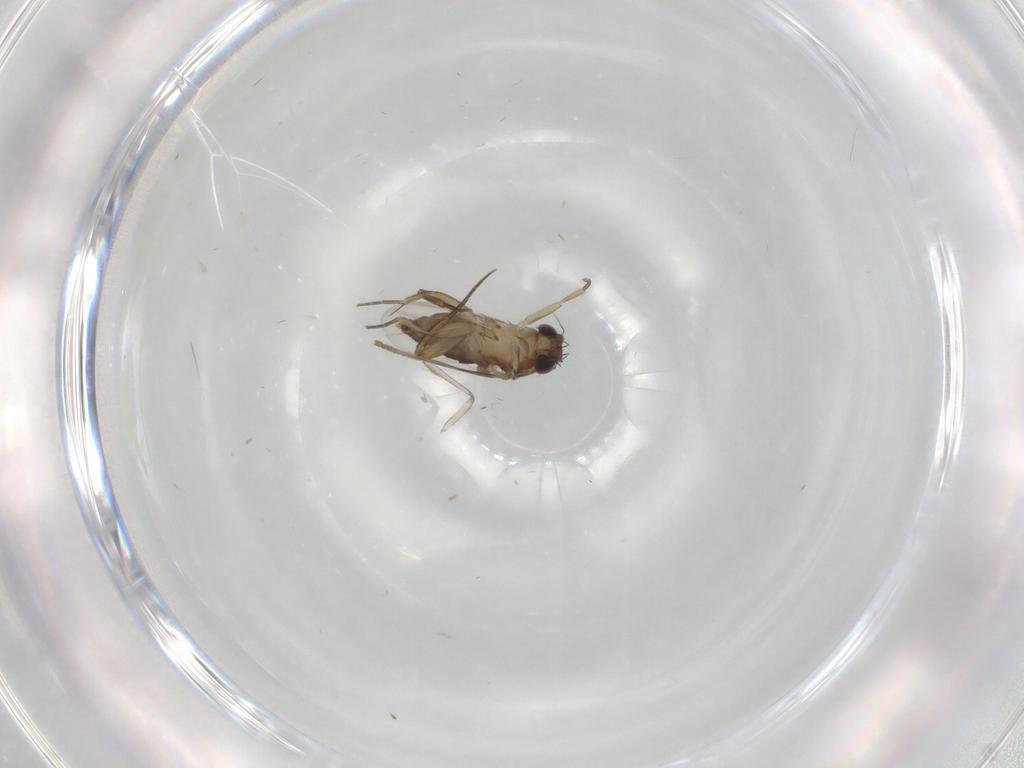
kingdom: Animalia
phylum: Arthropoda
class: Insecta
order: Diptera
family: Phoridae
